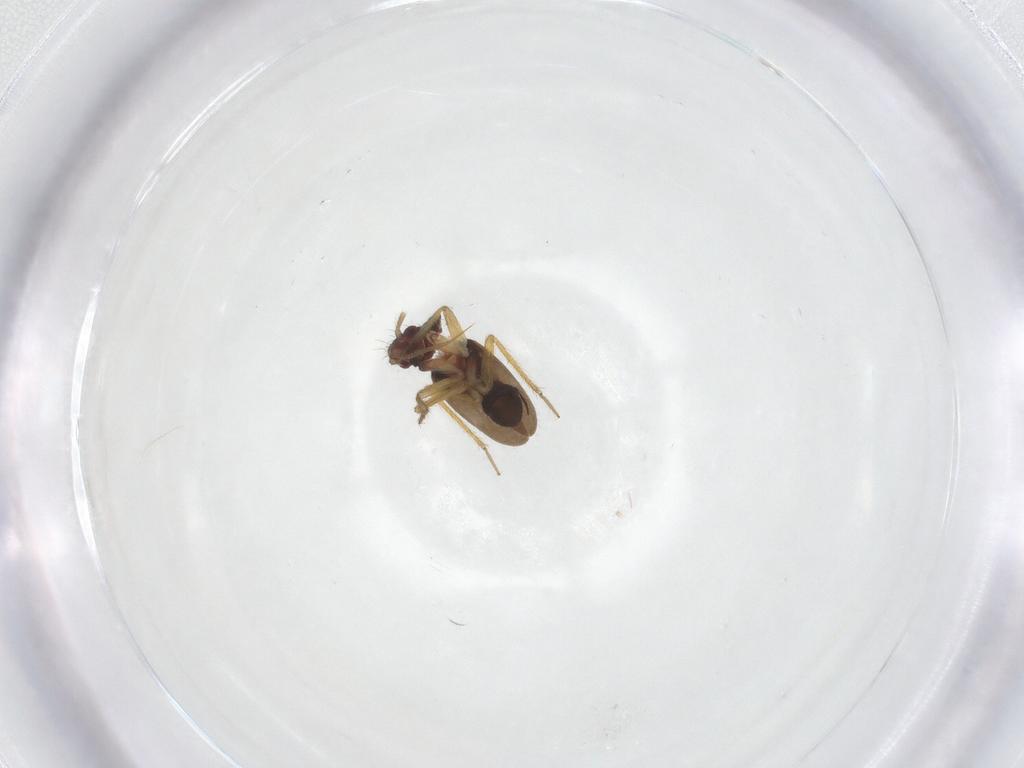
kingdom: Animalia
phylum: Arthropoda
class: Insecta
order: Hemiptera
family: Ceratocombidae
